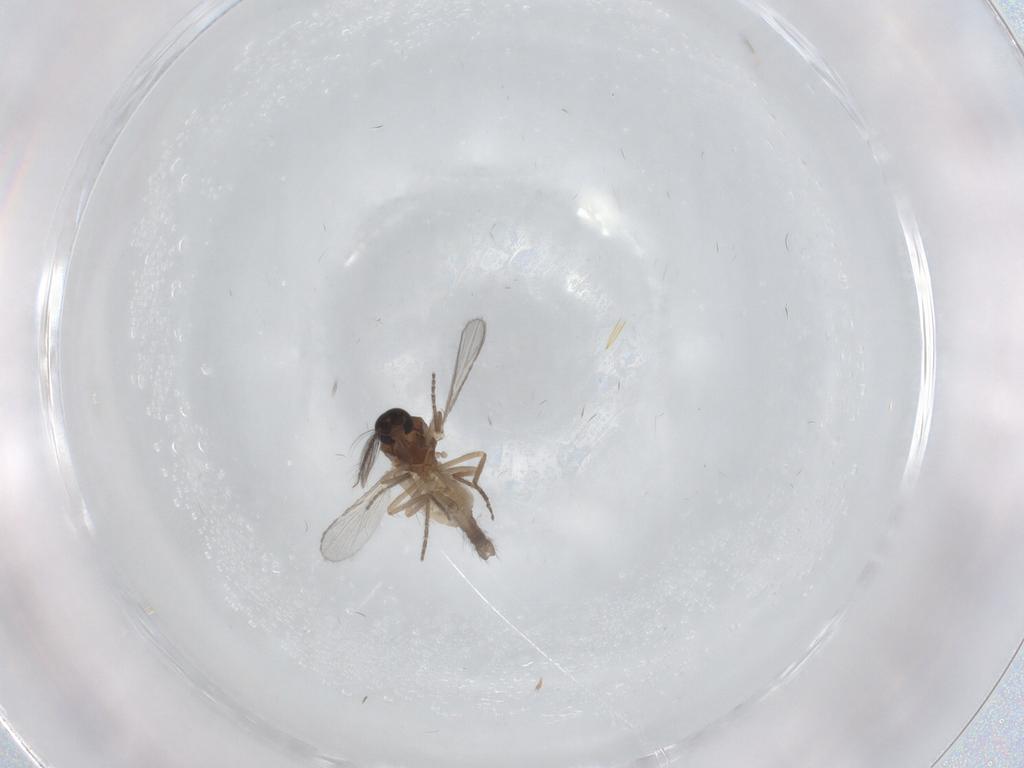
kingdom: Animalia
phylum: Arthropoda
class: Insecta
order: Diptera
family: Ceratopogonidae
